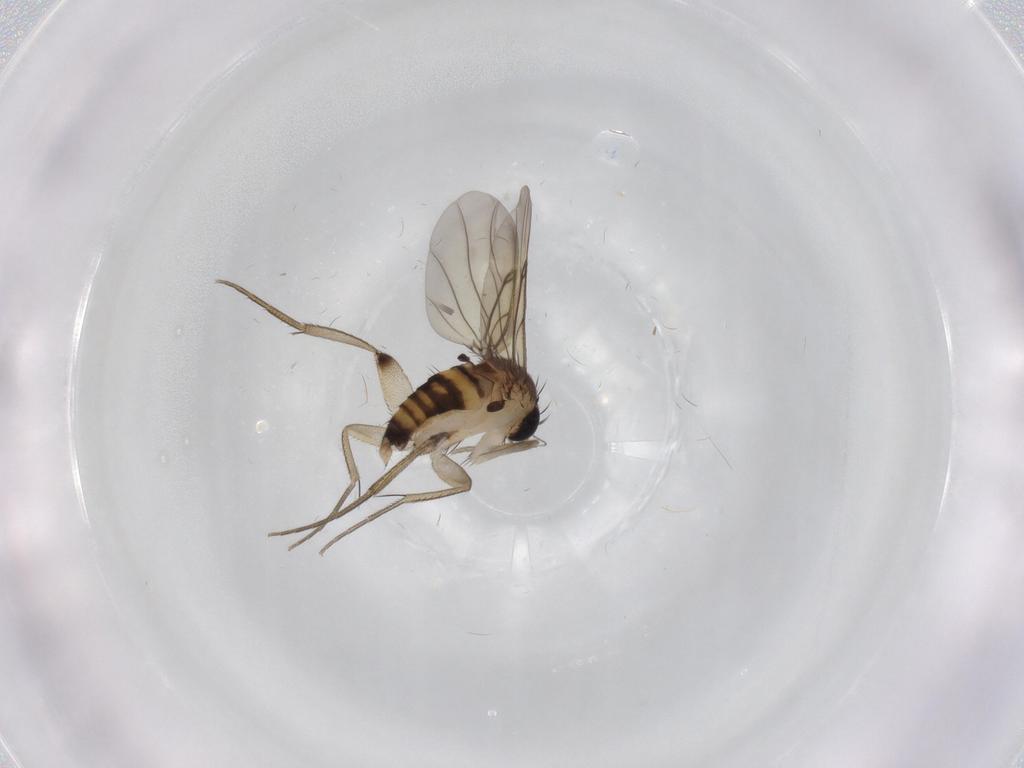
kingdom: Animalia
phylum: Arthropoda
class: Insecta
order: Diptera
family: Phoridae
